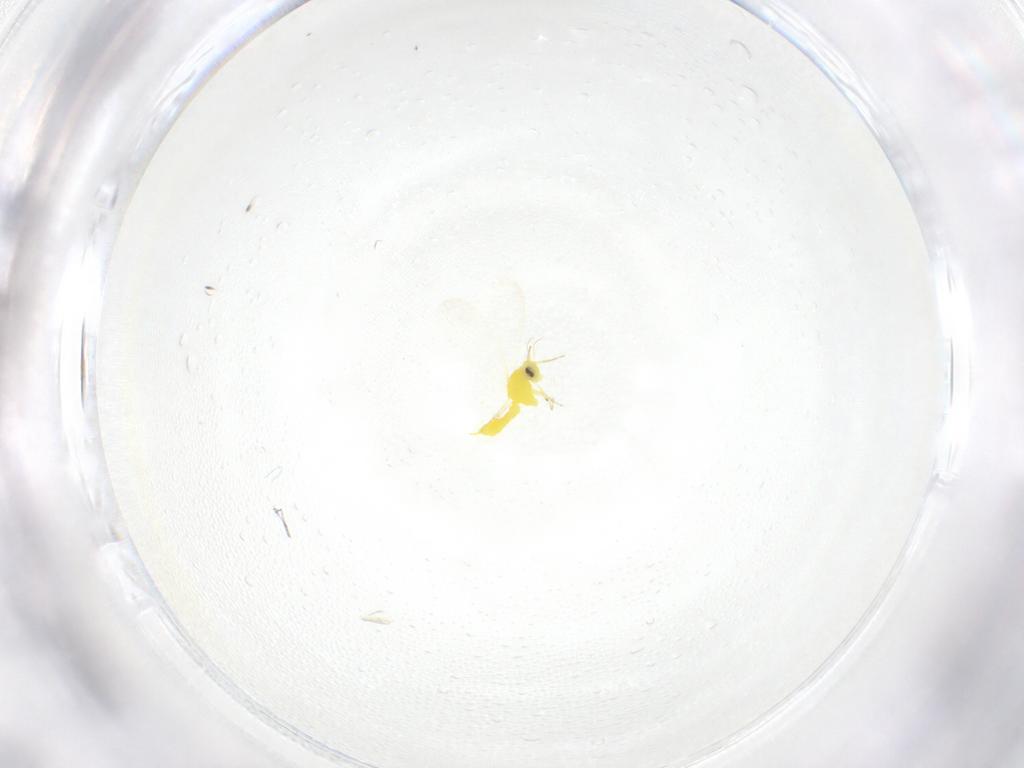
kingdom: Animalia
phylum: Arthropoda
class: Insecta
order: Hemiptera
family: Aleyrodidae
